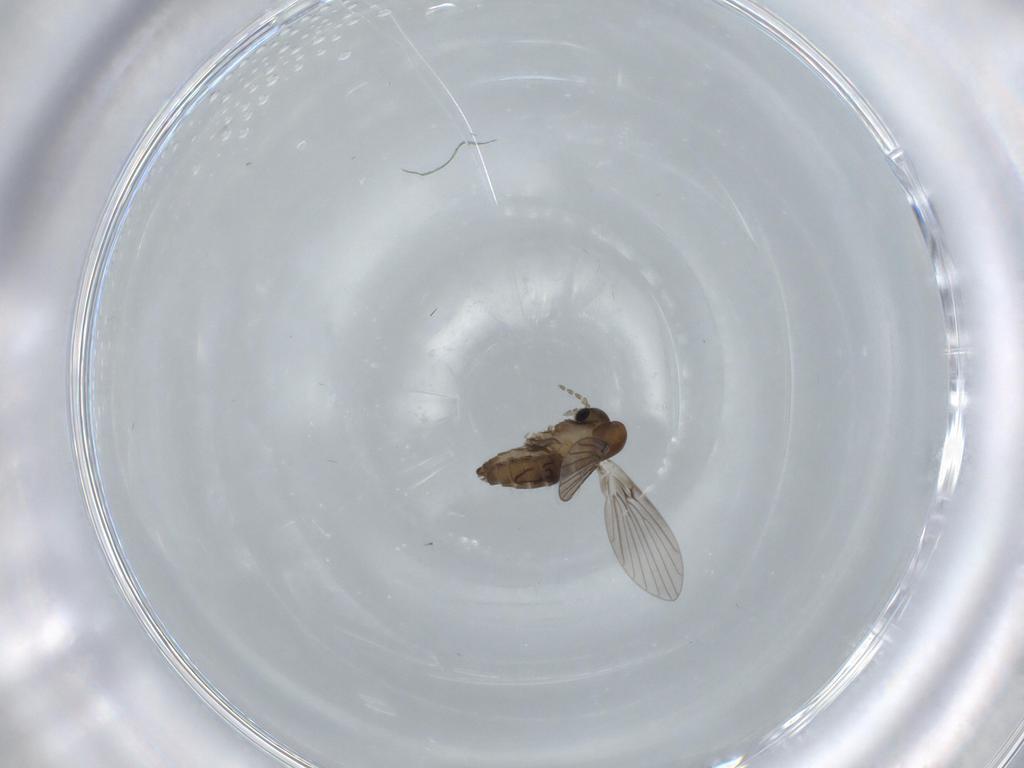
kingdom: Animalia
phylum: Arthropoda
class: Insecta
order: Diptera
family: Psychodidae
